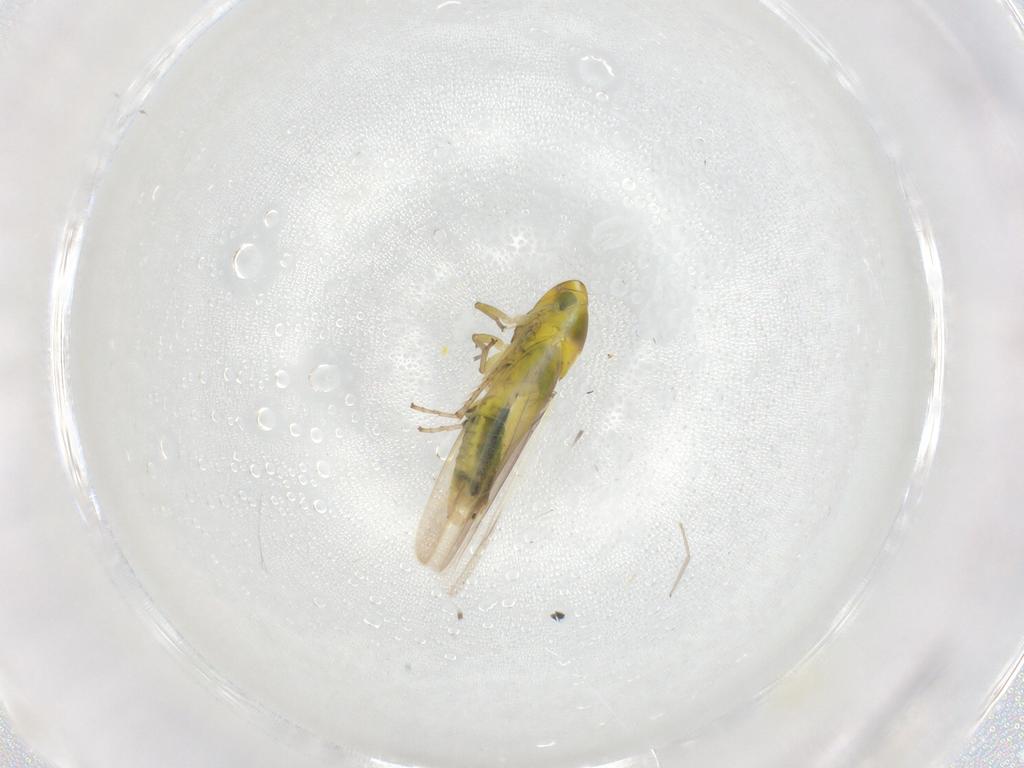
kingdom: Animalia
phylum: Arthropoda
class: Insecta
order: Hemiptera
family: Cicadellidae
